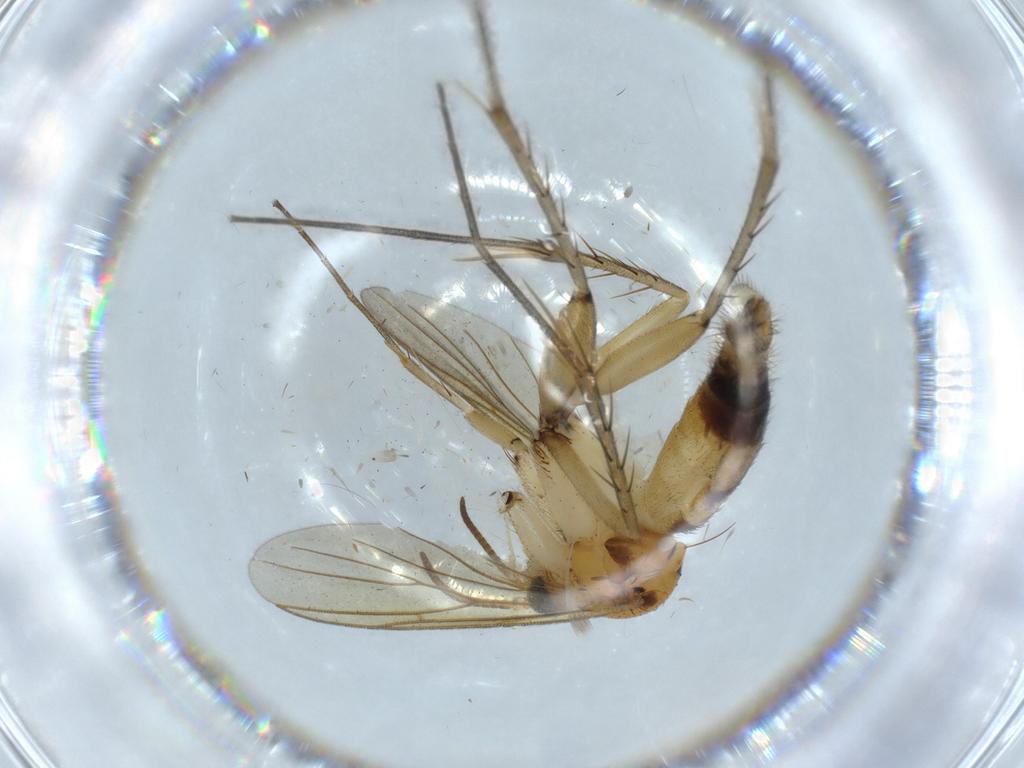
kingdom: Animalia
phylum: Arthropoda
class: Insecta
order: Diptera
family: Mycetophilidae
